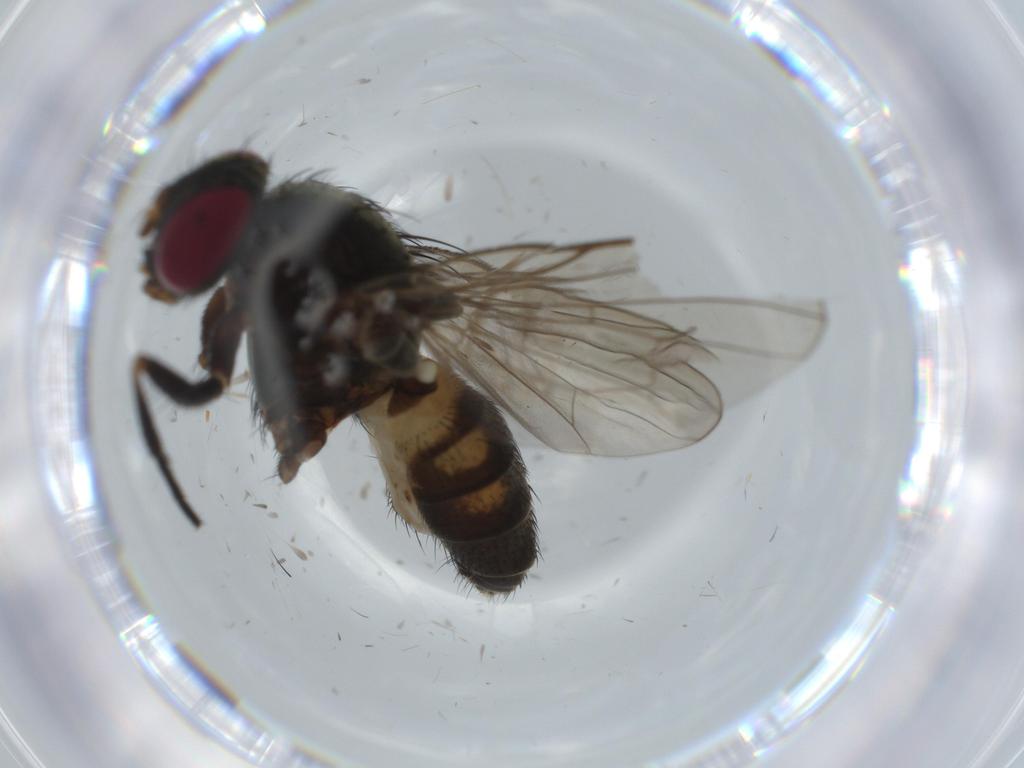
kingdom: Animalia
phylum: Arthropoda
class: Insecta
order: Diptera
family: Fannia
